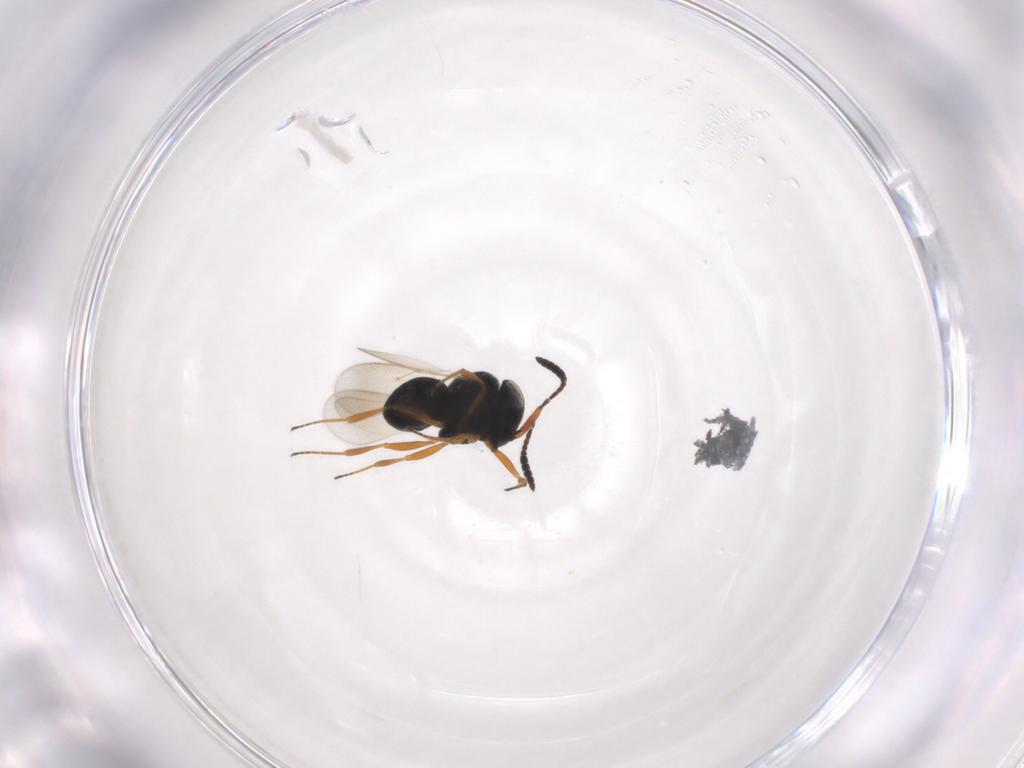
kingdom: Animalia
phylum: Arthropoda
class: Insecta
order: Hymenoptera
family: Scelionidae
